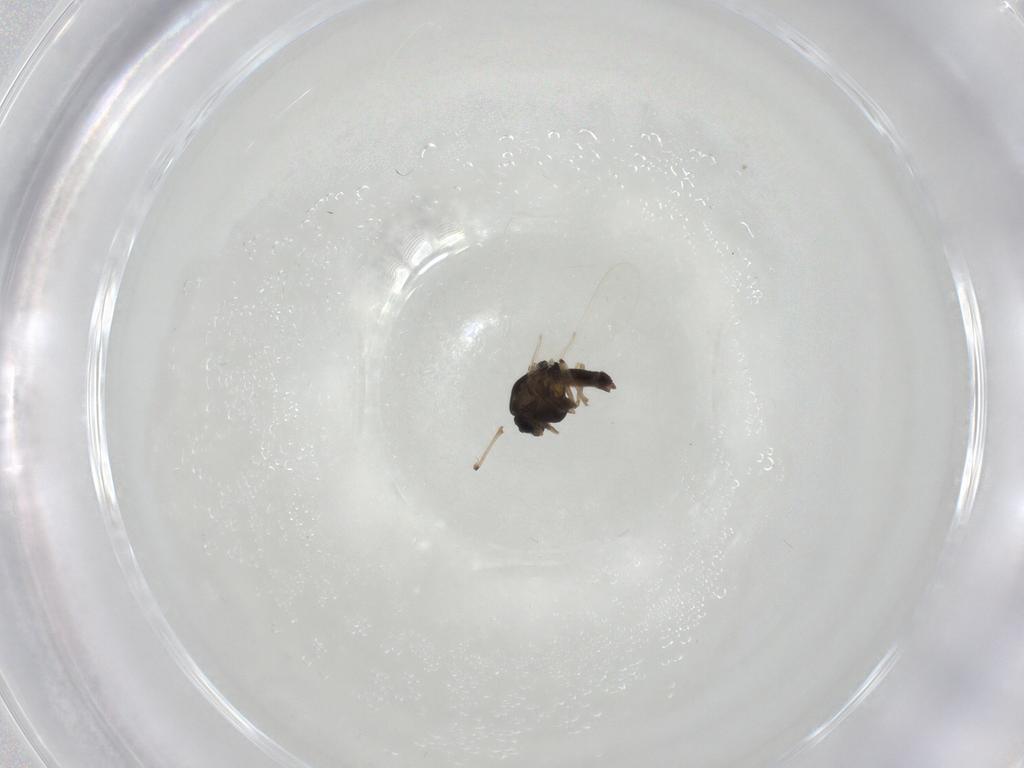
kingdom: Animalia
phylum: Arthropoda
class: Insecta
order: Diptera
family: Chironomidae
